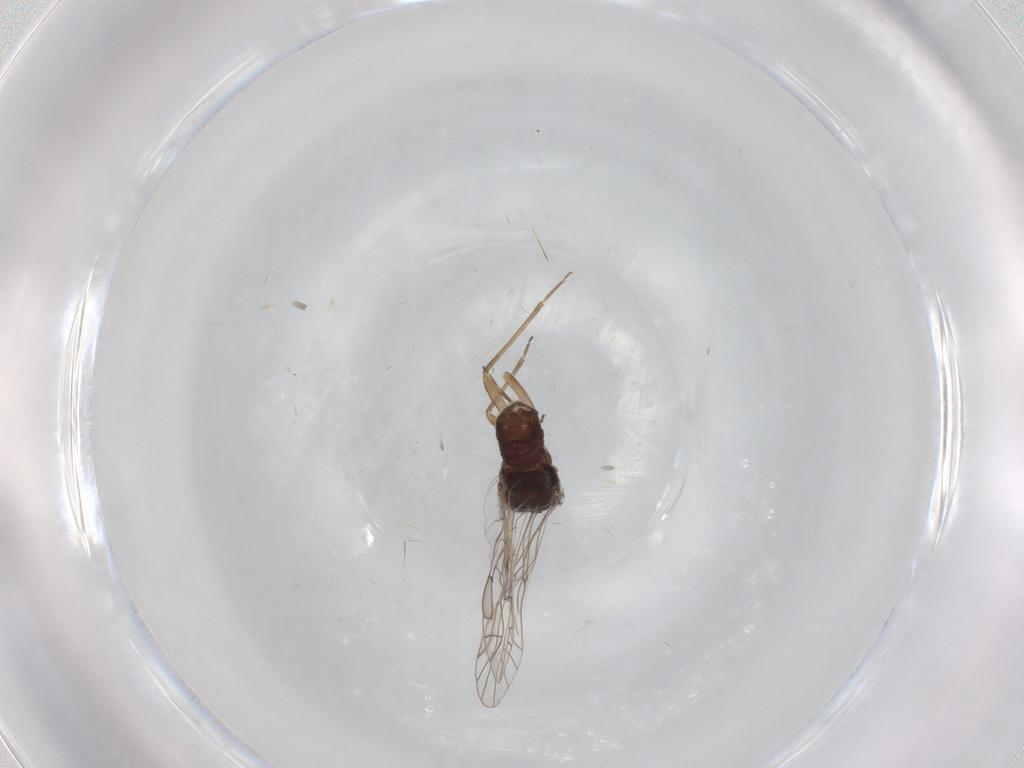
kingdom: Animalia
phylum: Arthropoda
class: Insecta
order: Psocodea
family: Lachesillidae
